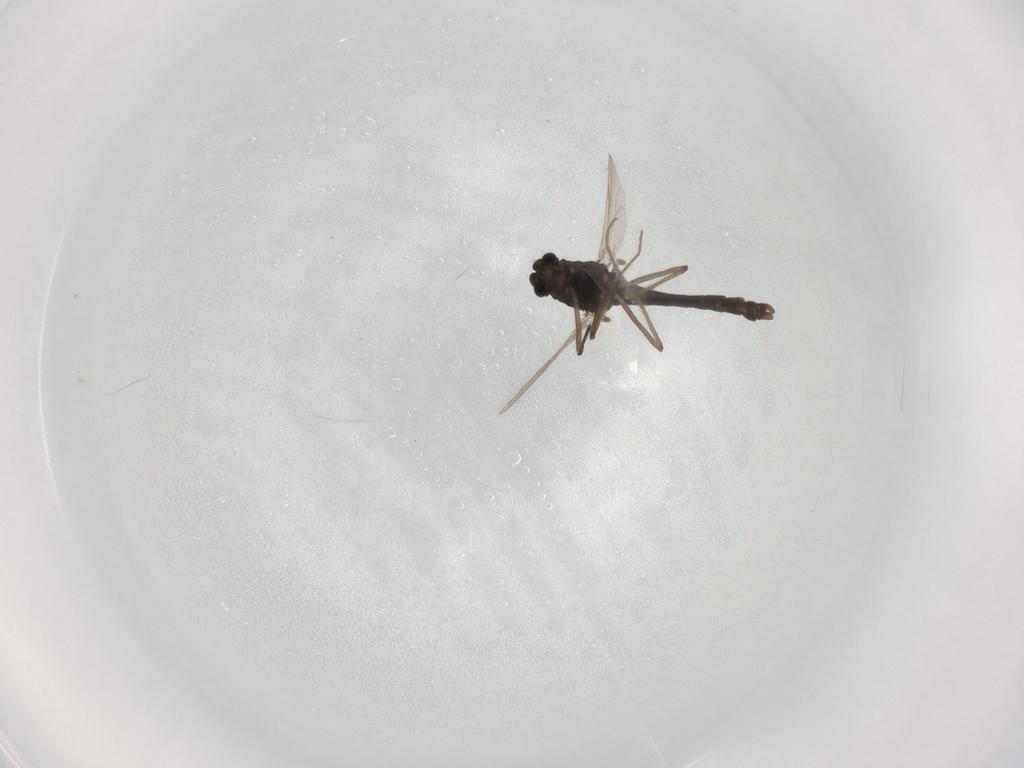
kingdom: Animalia
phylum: Arthropoda
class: Insecta
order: Diptera
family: Chironomidae
